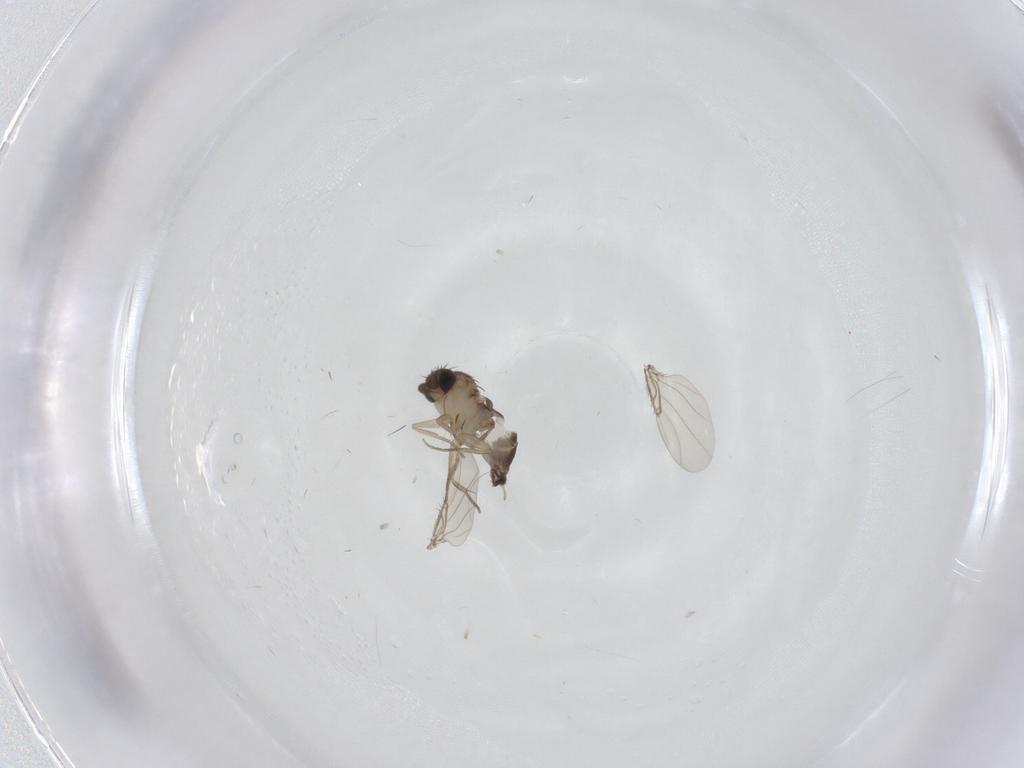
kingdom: Animalia
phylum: Arthropoda
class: Insecta
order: Diptera
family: Phoridae
